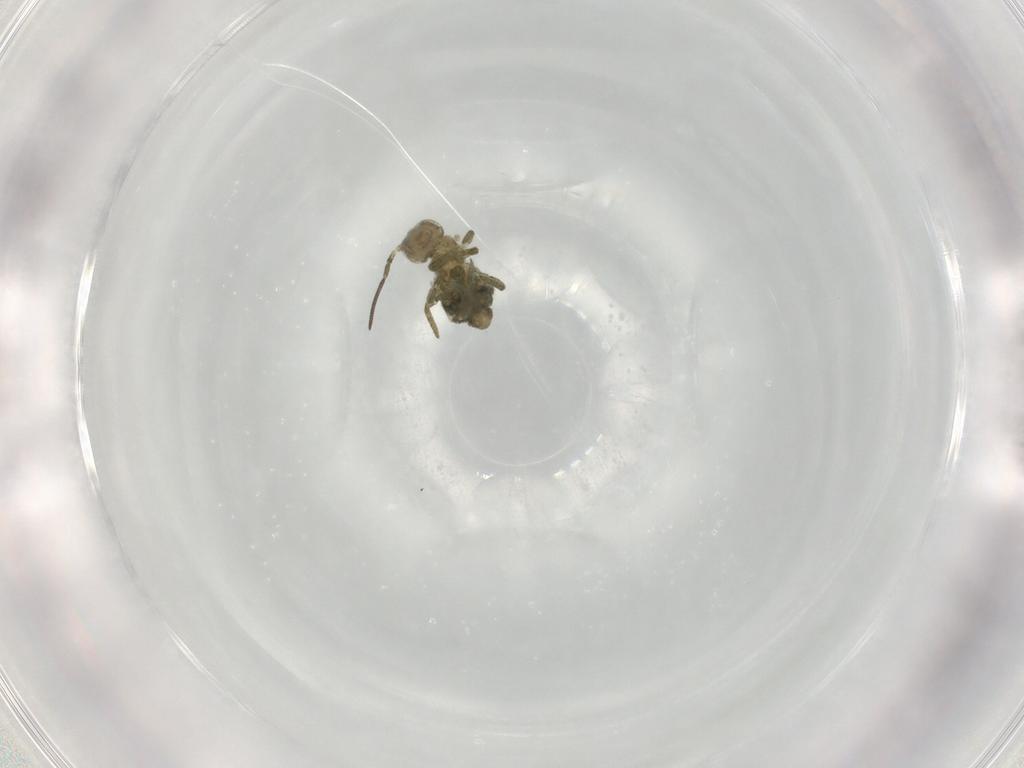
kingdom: Animalia
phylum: Arthropoda
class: Collembola
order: Symphypleona
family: Sminthuridae
